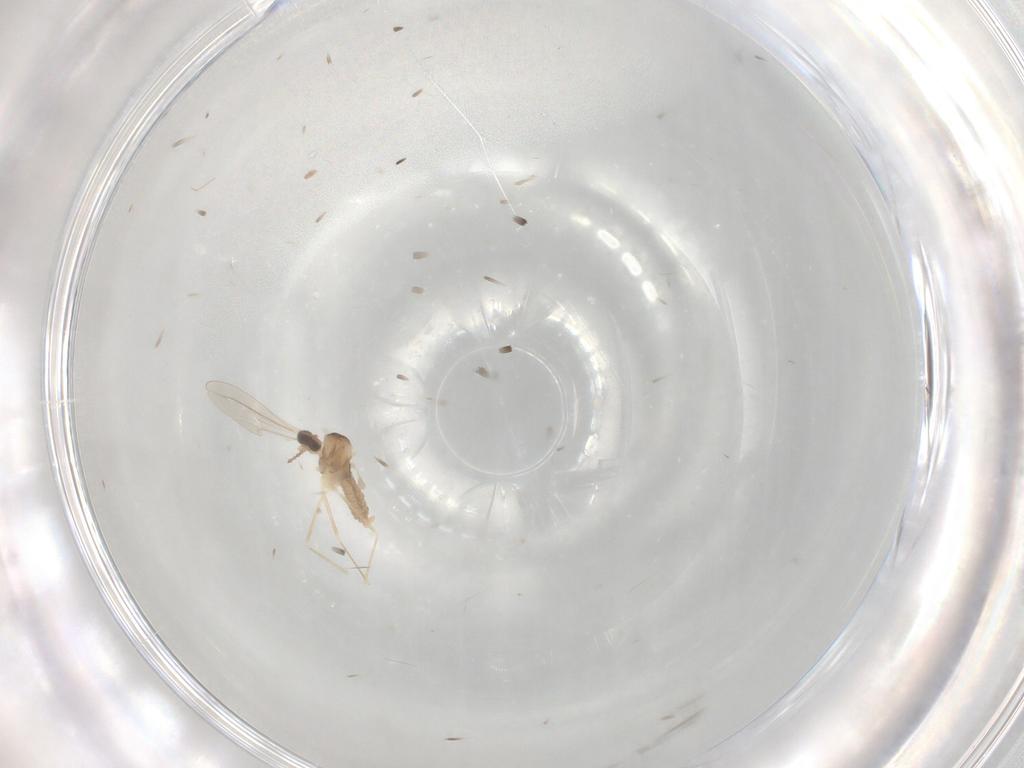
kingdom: Animalia
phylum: Arthropoda
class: Insecta
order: Diptera
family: Cecidomyiidae
